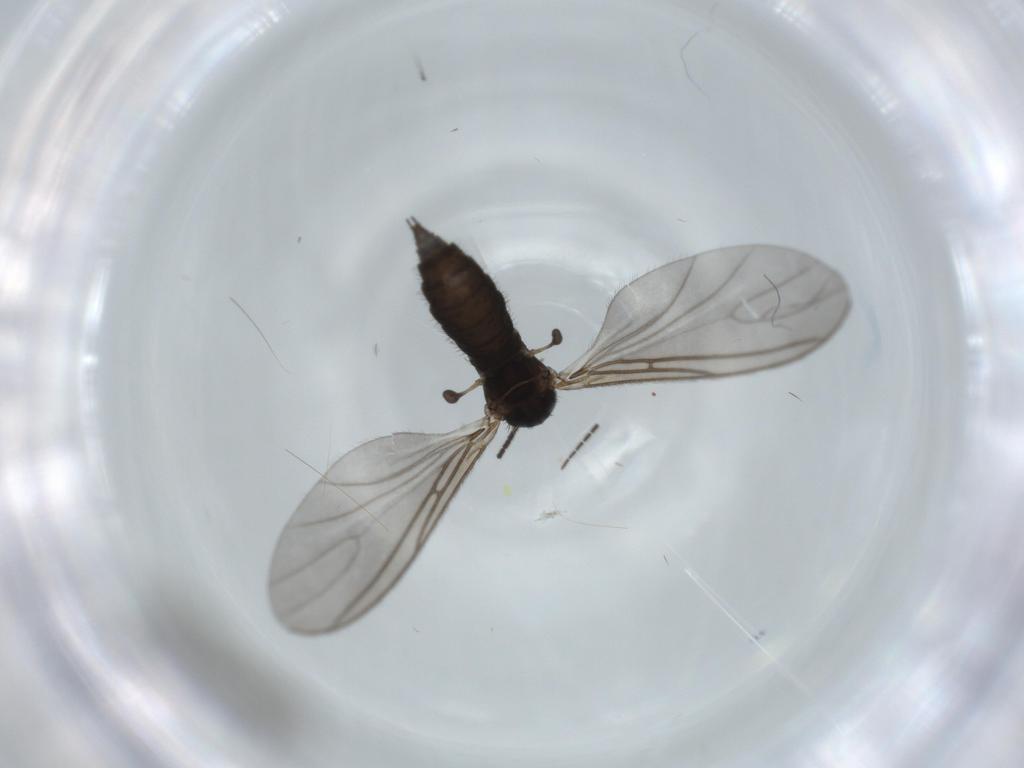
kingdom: Animalia
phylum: Arthropoda
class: Insecta
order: Diptera
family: Sciaridae
